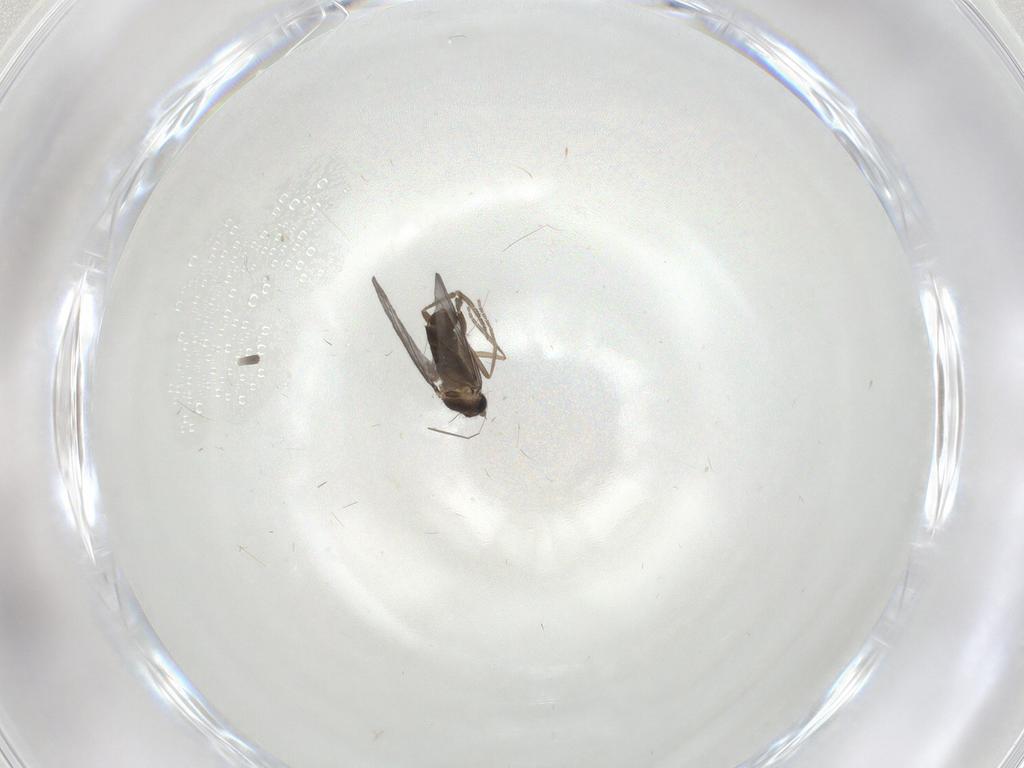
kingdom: Animalia
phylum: Arthropoda
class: Insecta
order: Diptera
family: Phoridae
